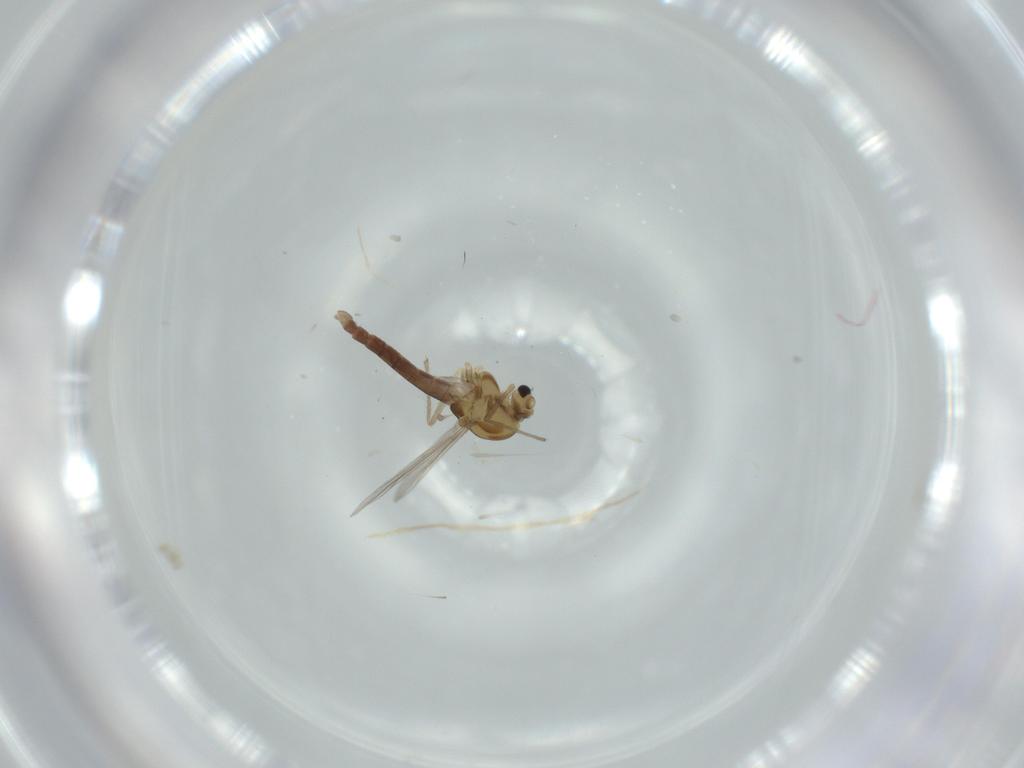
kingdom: Animalia
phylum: Arthropoda
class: Insecta
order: Diptera
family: Chironomidae
